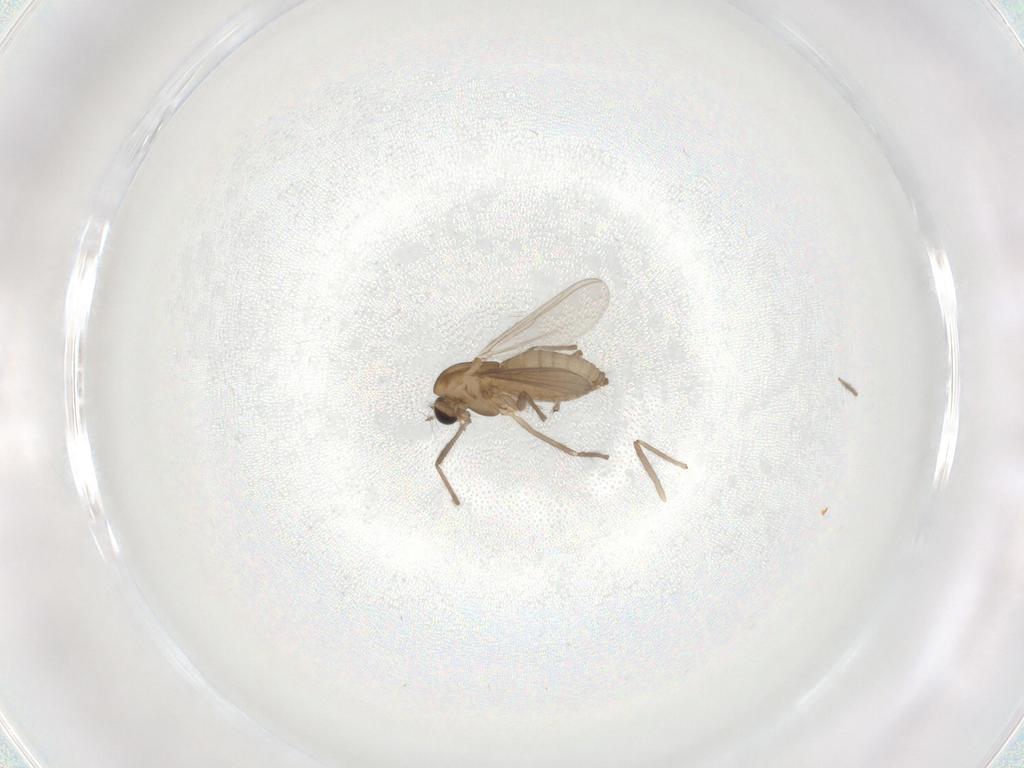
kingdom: Animalia
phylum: Arthropoda
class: Insecta
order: Diptera
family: Chironomidae
